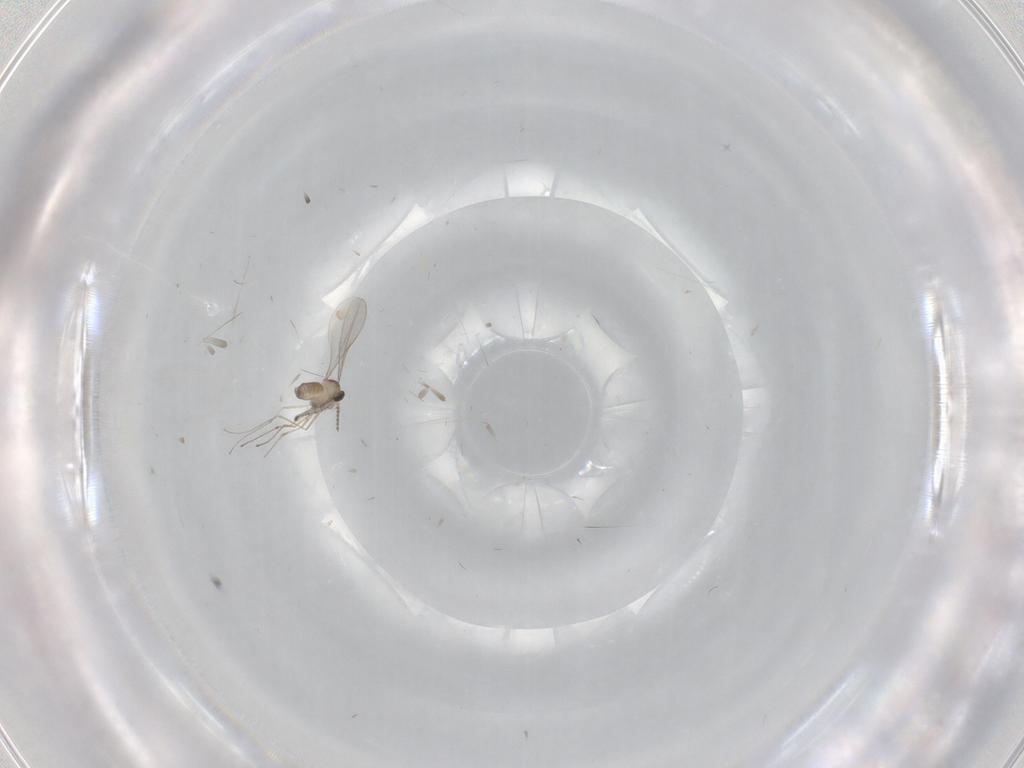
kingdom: Animalia
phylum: Arthropoda
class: Insecta
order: Diptera
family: Cecidomyiidae
